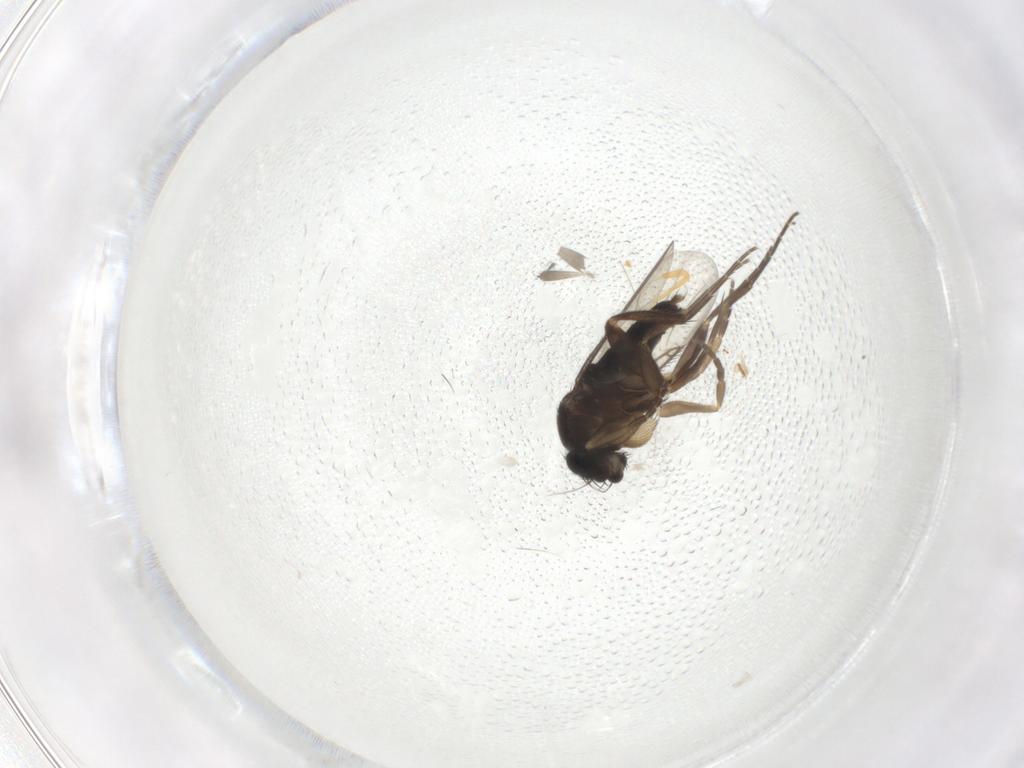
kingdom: Animalia
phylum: Arthropoda
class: Insecta
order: Diptera
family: Phoridae
